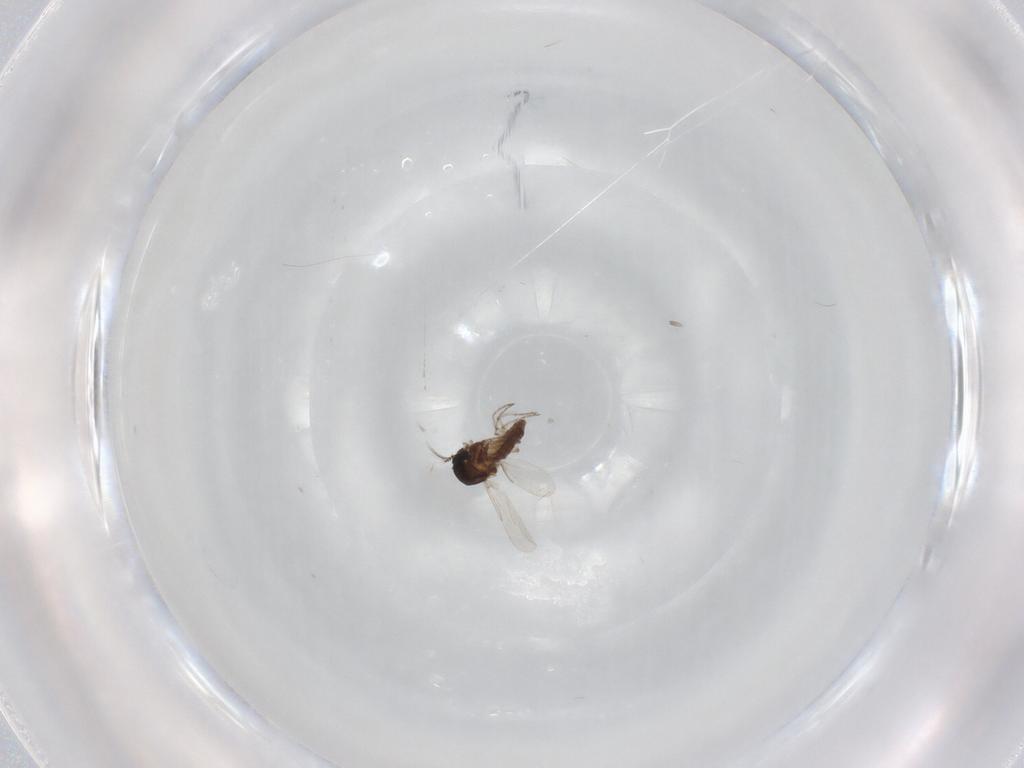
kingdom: Animalia
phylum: Arthropoda
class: Insecta
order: Diptera
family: Ceratopogonidae
